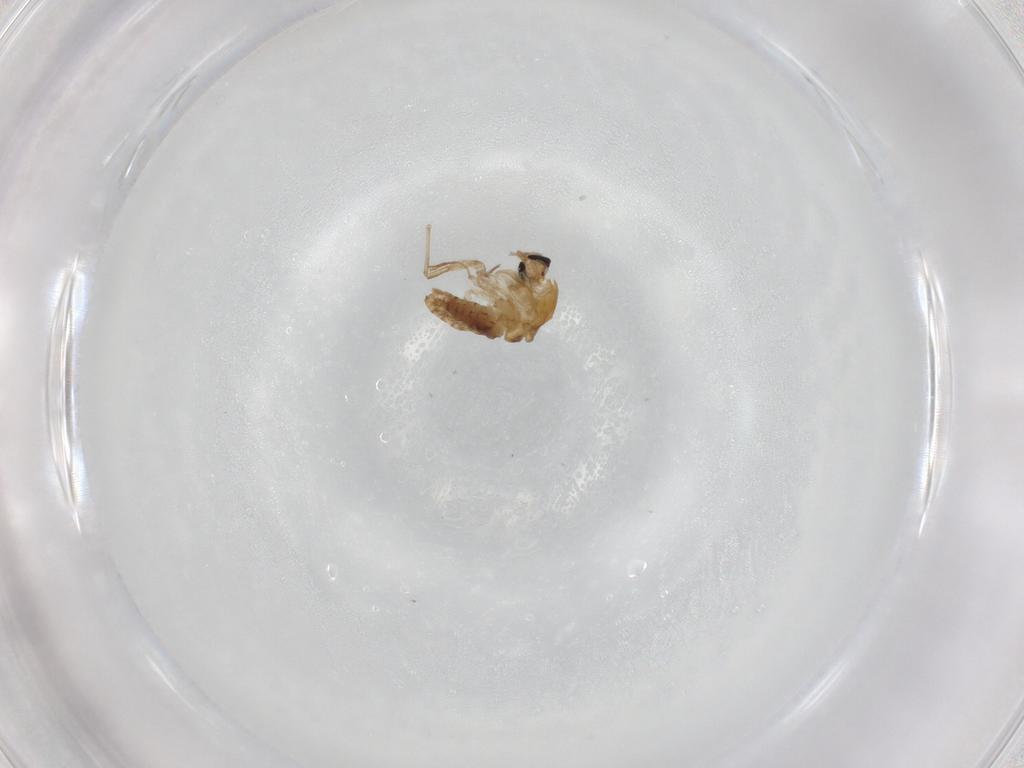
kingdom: Animalia
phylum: Arthropoda
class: Insecta
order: Diptera
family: Chironomidae
